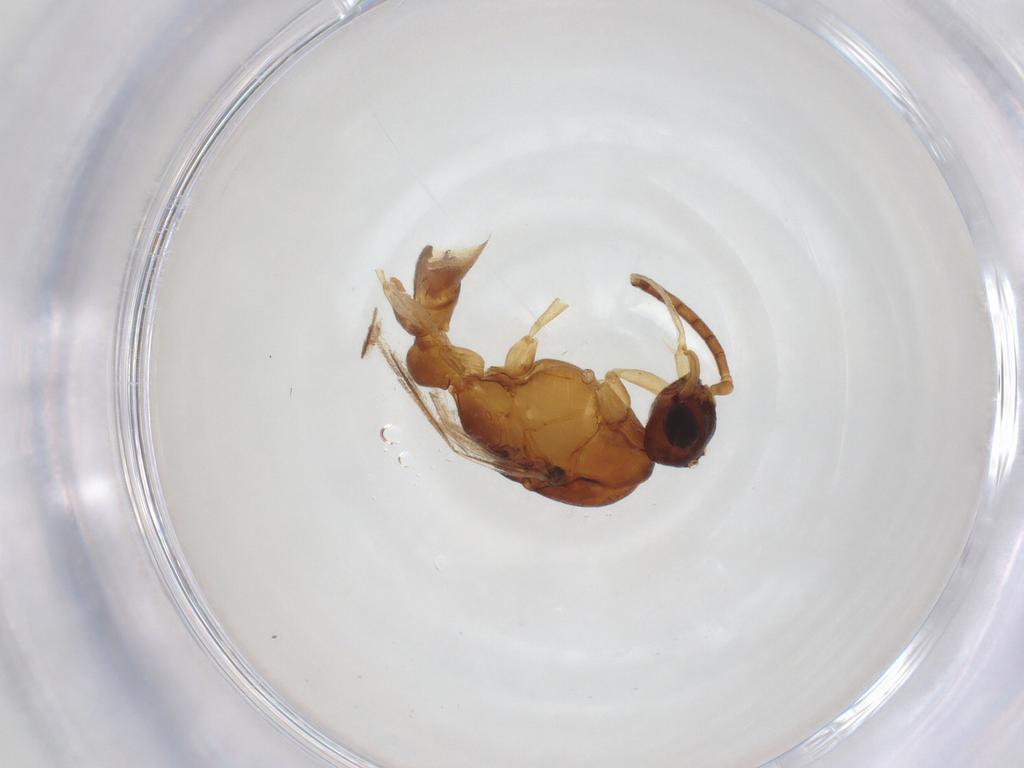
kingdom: Animalia
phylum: Arthropoda
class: Insecta
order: Hymenoptera
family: Formicidae
